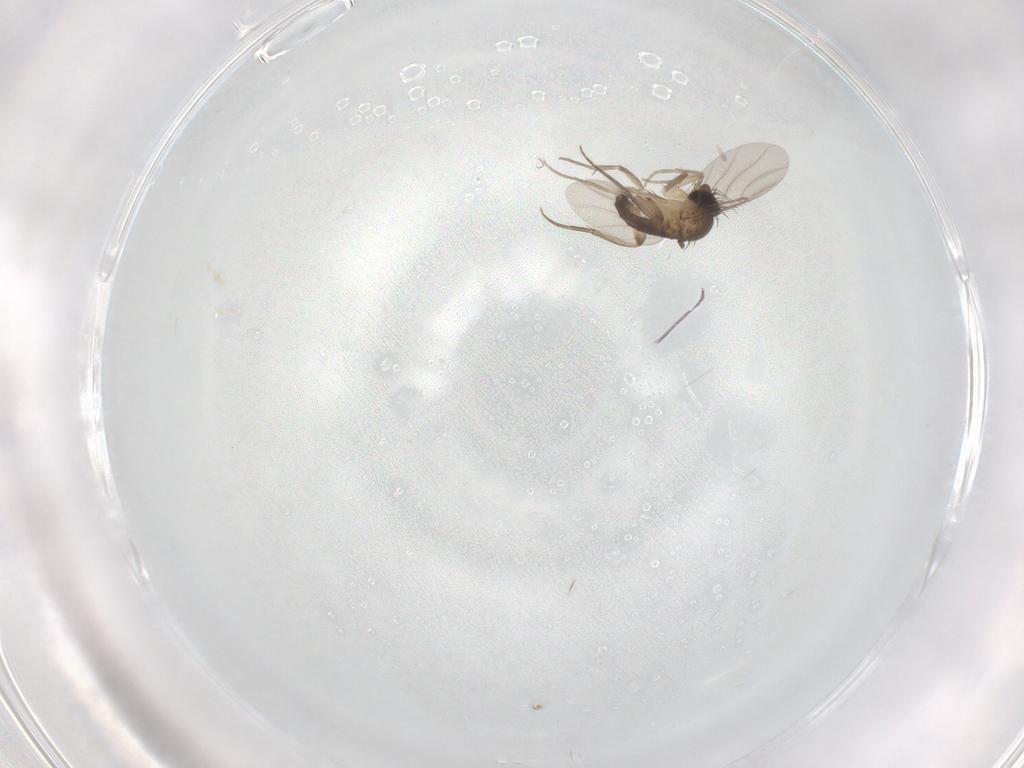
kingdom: Animalia
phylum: Arthropoda
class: Insecta
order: Diptera
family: Phoridae
